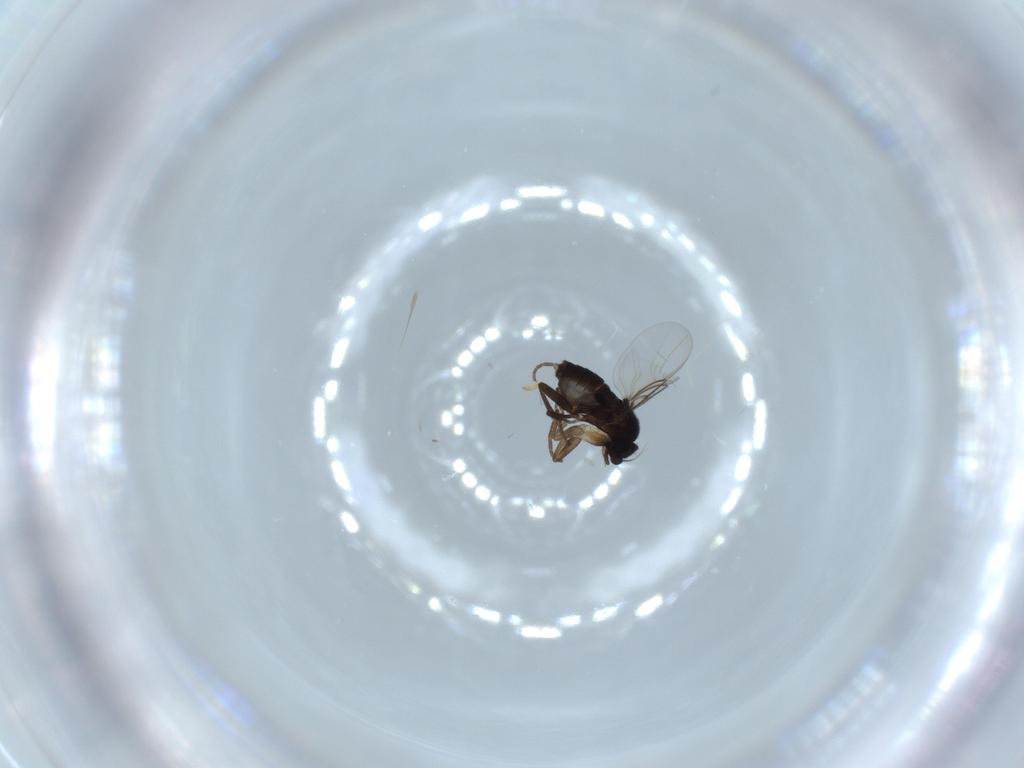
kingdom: Animalia
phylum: Arthropoda
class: Insecta
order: Diptera
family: Phoridae
